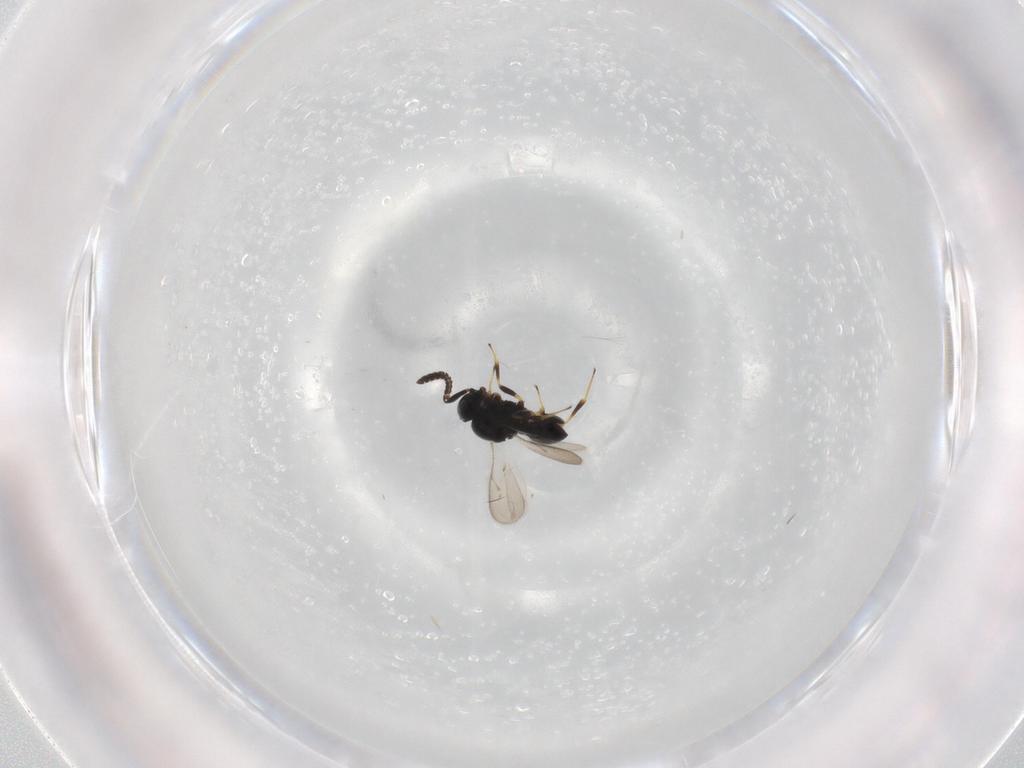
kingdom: Animalia
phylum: Arthropoda
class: Insecta
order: Hymenoptera
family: Scelionidae
